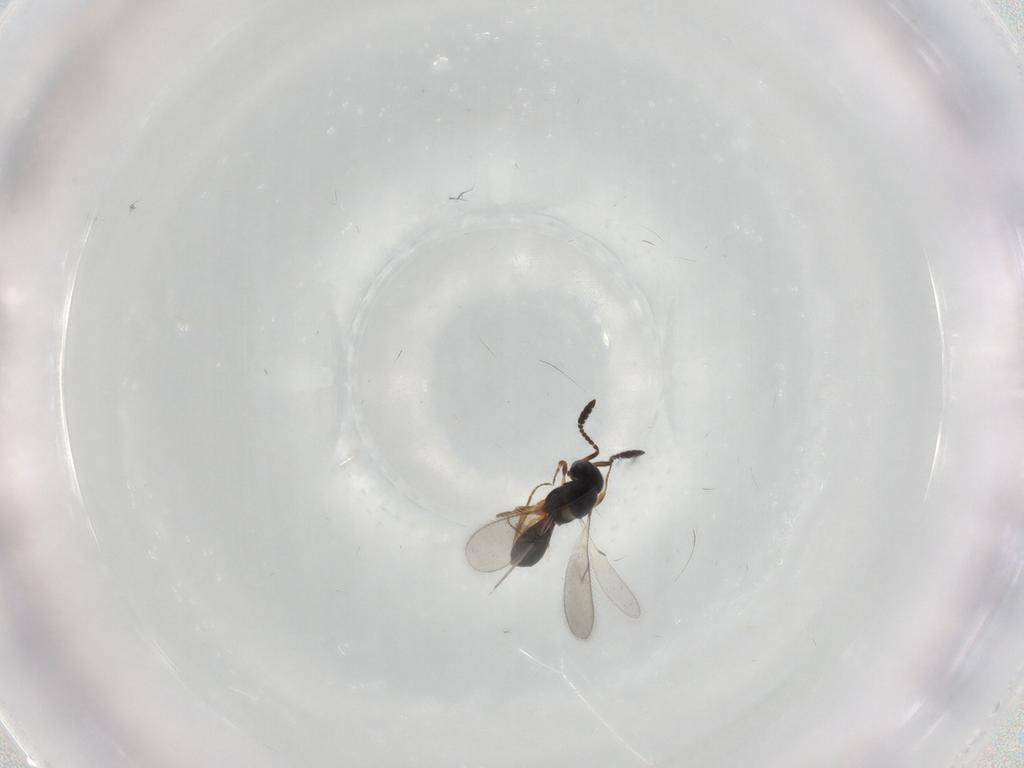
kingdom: Animalia
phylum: Arthropoda
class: Insecta
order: Hymenoptera
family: Scelionidae
